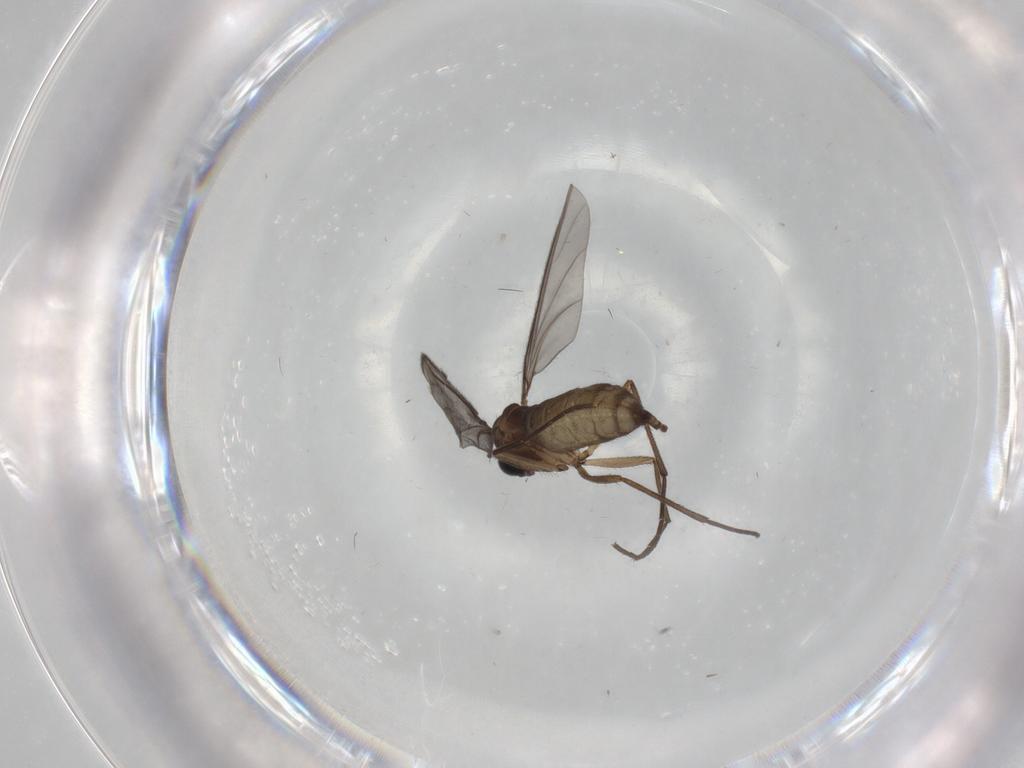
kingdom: Animalia
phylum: Arthropoda
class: Insecta
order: Diptera
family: Sciaridae
